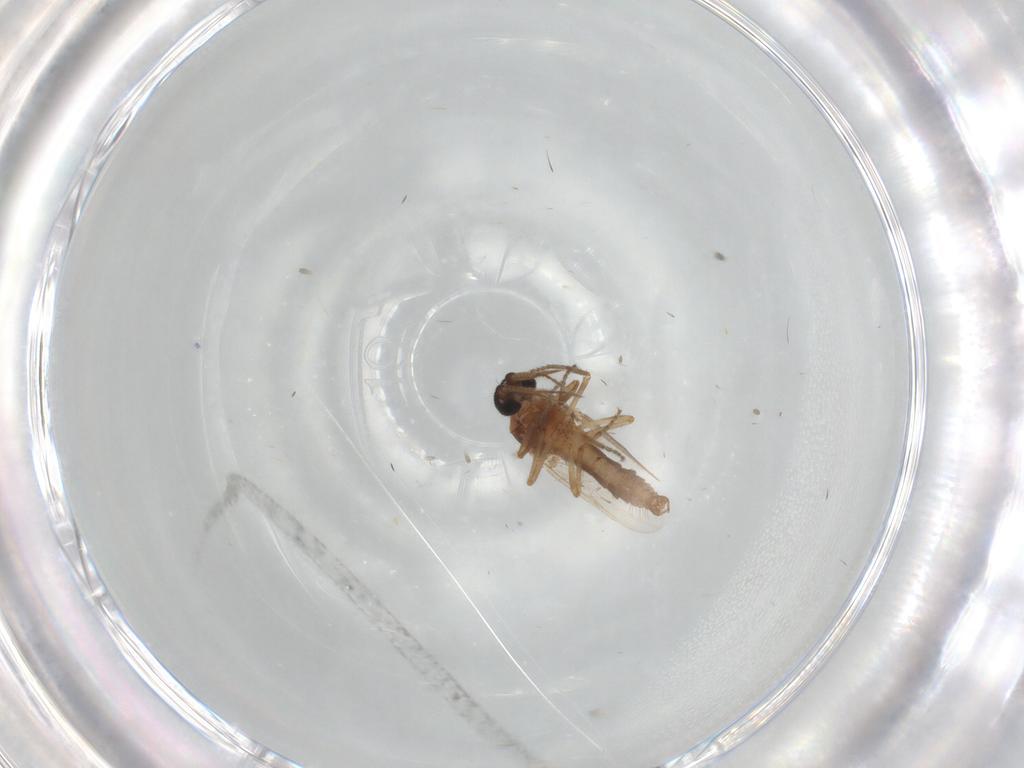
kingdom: Animalia
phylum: Arthropoda
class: Insecta
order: Diptera
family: Ceratopogonidae
